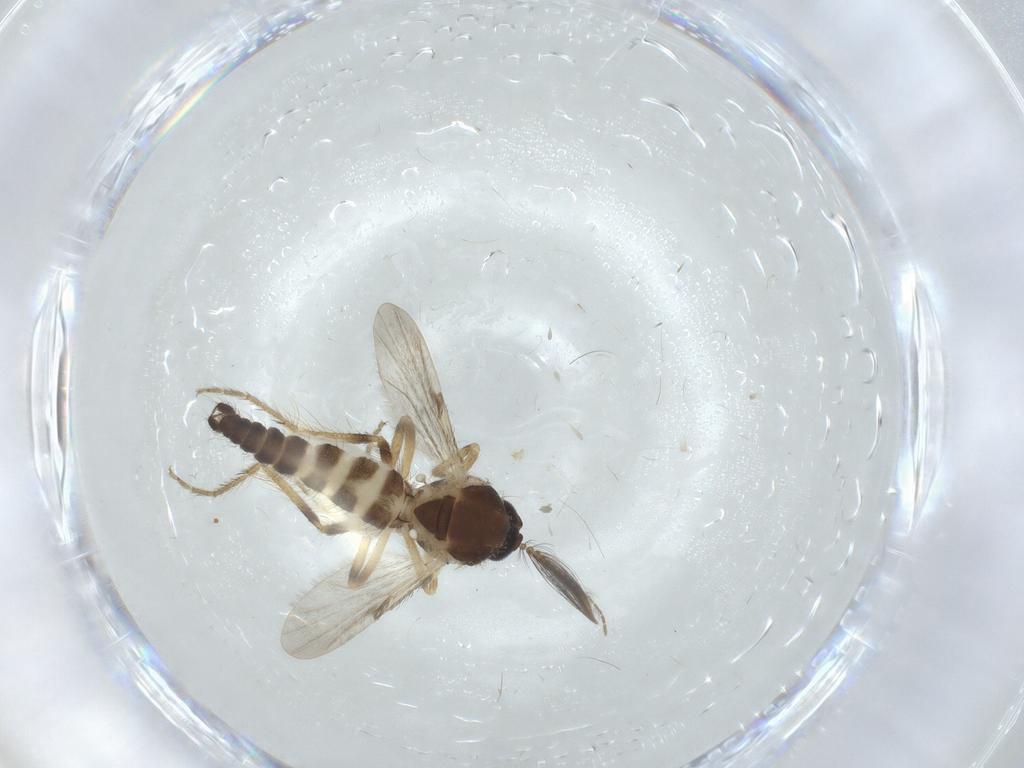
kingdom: Animalia
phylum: Arthropoda
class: Insecta
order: Diptera
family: Ceratopogonidae
